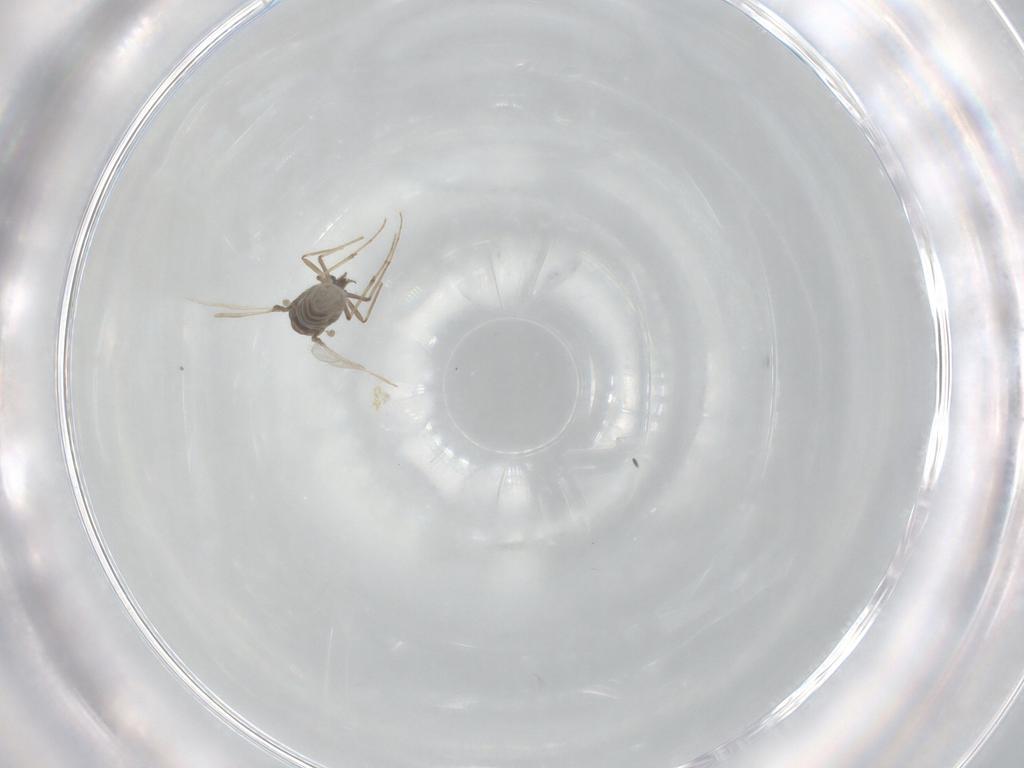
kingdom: Animalia
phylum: Arthropoda
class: Insecta
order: Diptera
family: Chironomidae
